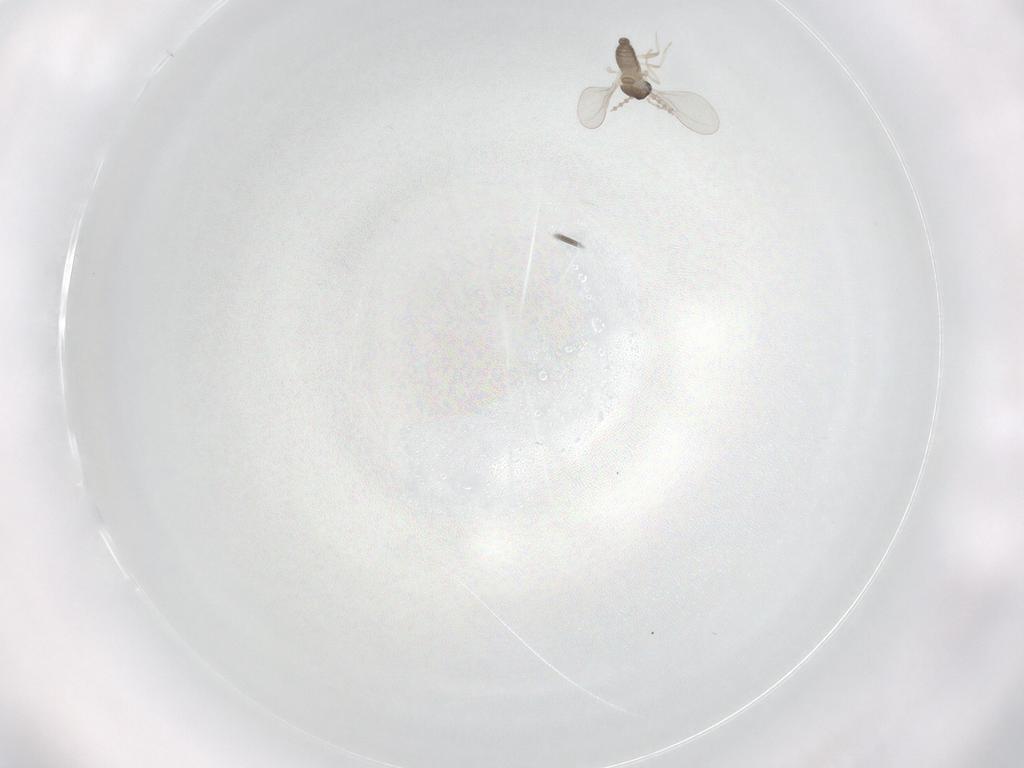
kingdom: Animalia
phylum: Arthropoda
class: Insecta
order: Diptera
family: Cecidomyiidae
